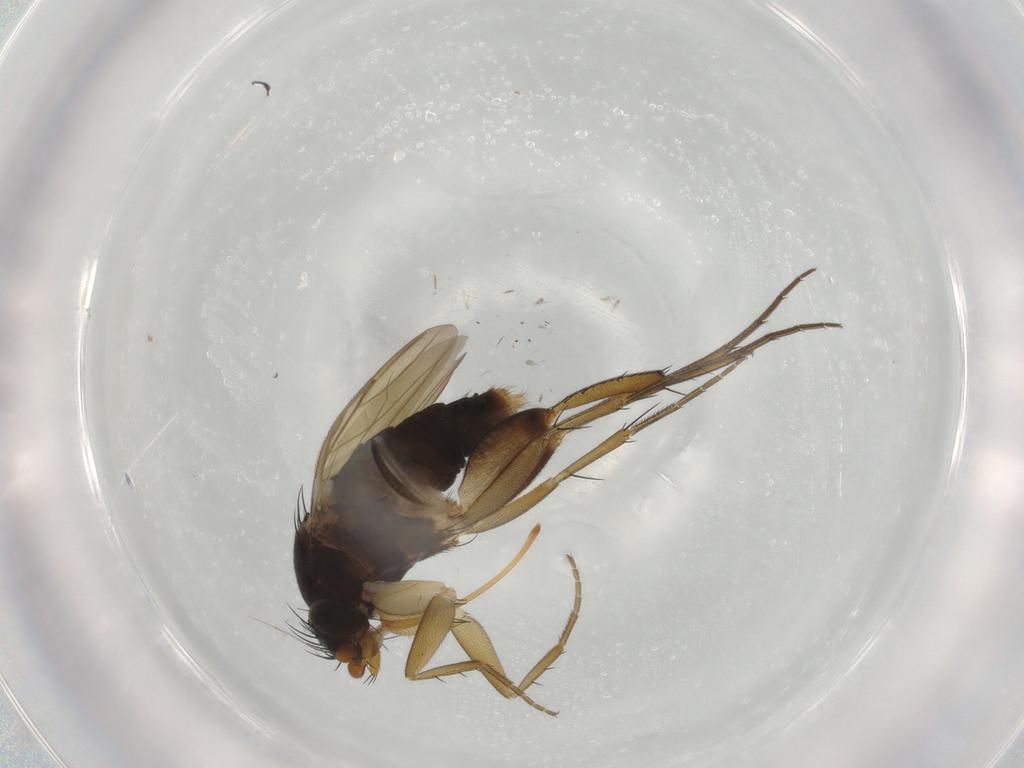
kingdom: Animalia
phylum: Arthropoda
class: Insecta
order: Diptera
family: Phoridae
